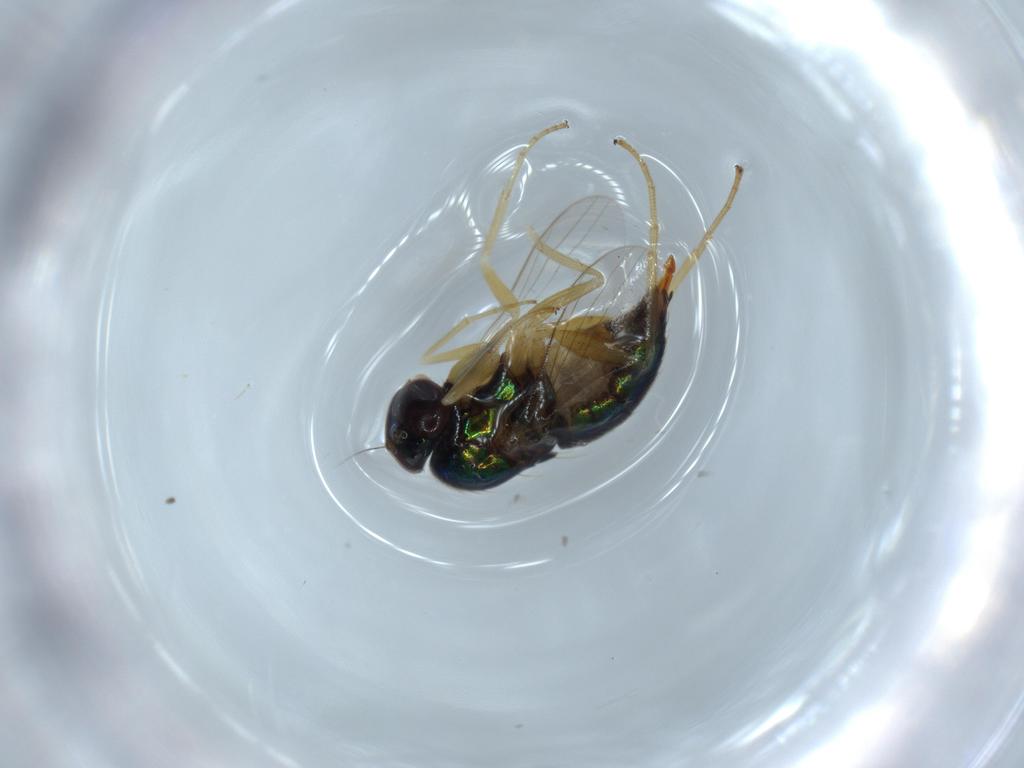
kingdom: Animalia
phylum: Arthropoda
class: Insecta
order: Diptera
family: Dolichopodidae
